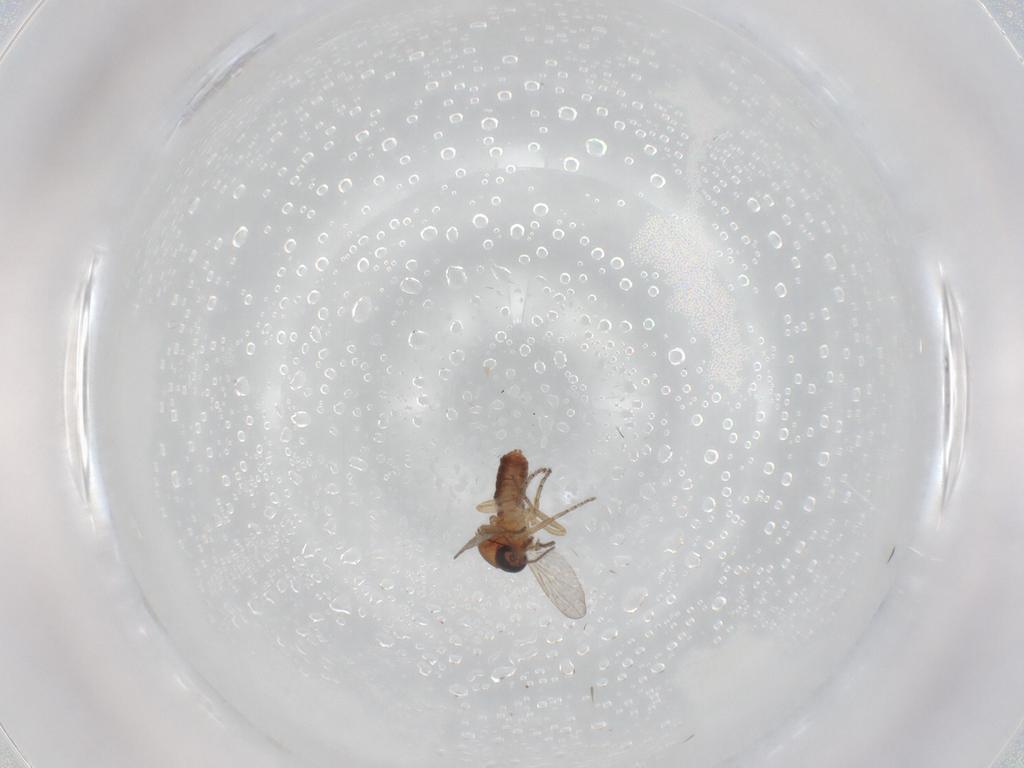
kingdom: Animalia
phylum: Arthropoda
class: Insecta
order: Diptera
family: Ceratopogonidae
